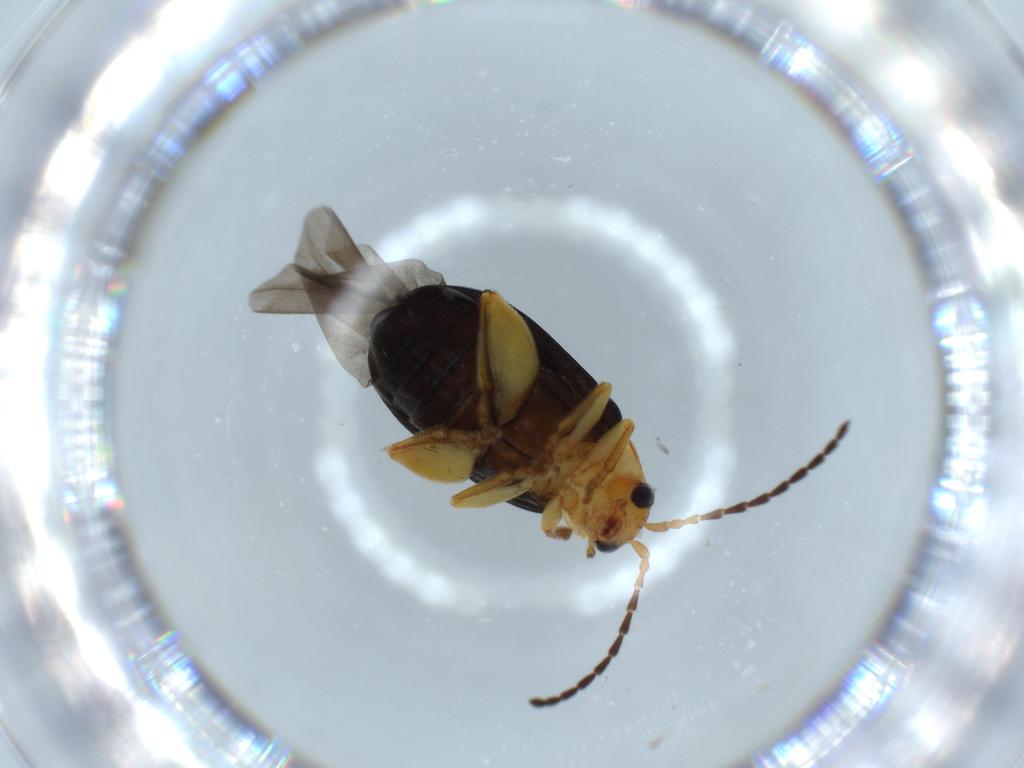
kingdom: Animalia
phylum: Arthropoda
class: Insecta
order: Coleoptera
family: Chrysomelidae
